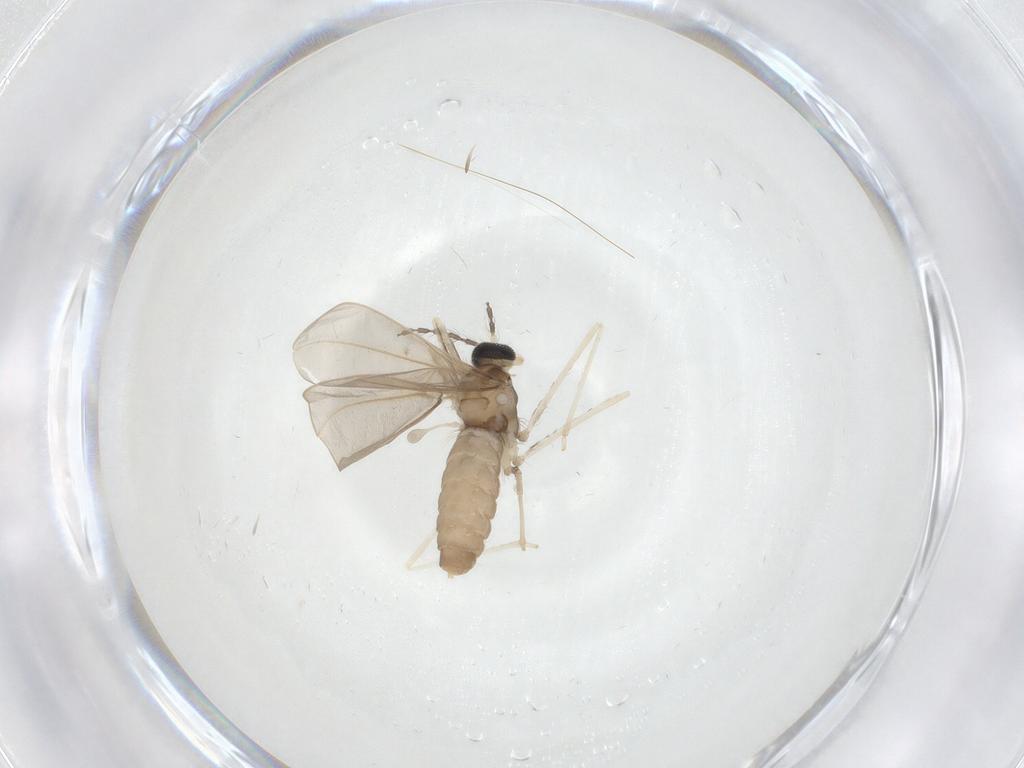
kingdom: Animalia
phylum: Arthropoda
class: Insecta
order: Diptera
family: Cecidomyiidae
